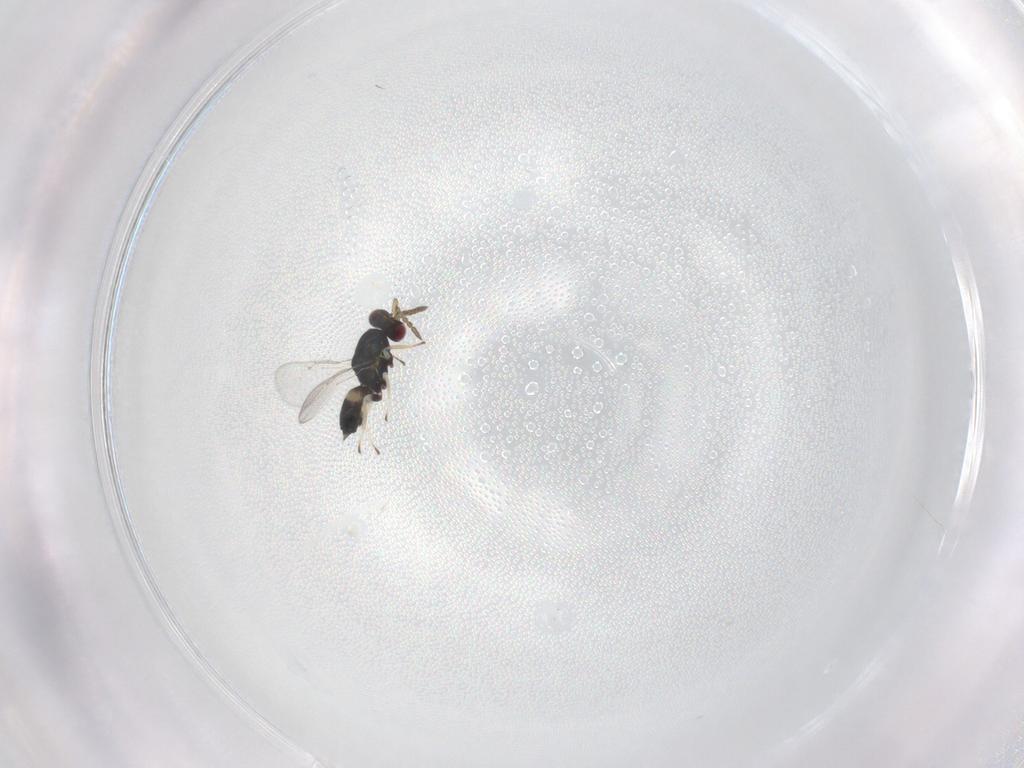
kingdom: Animalia
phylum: Arthropoda
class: Insecta
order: Hymenoptera
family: Eulophidae
